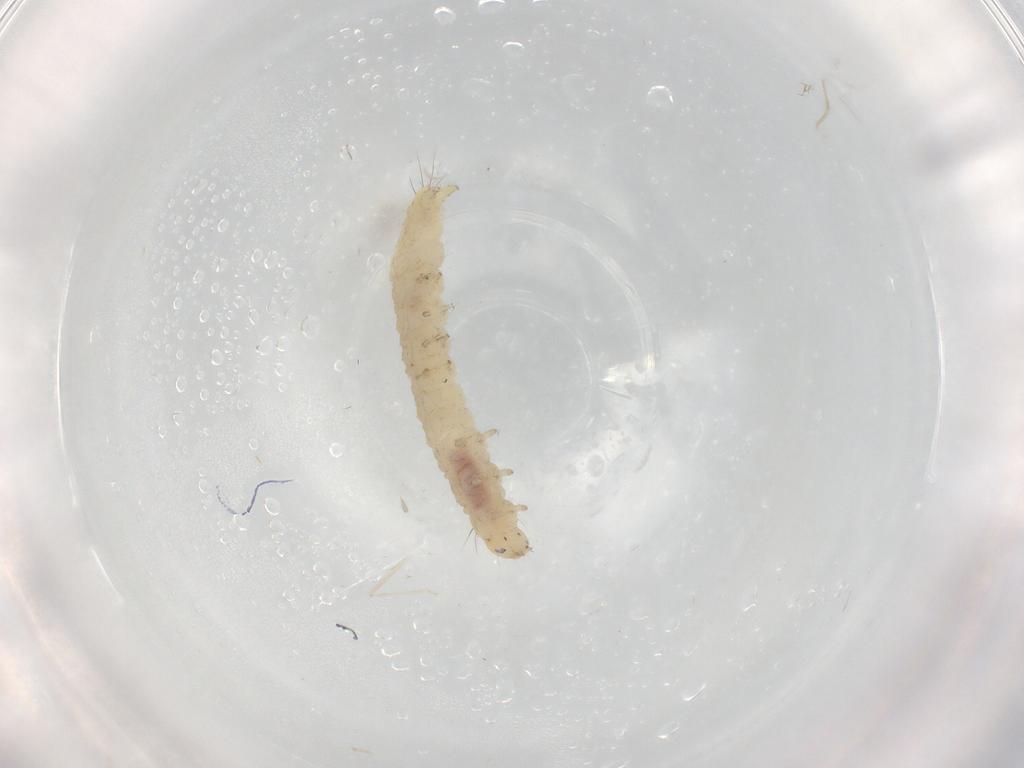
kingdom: Animalia
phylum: Arthropoda
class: Insecta
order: Lepidoptera
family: Gelechiidae
